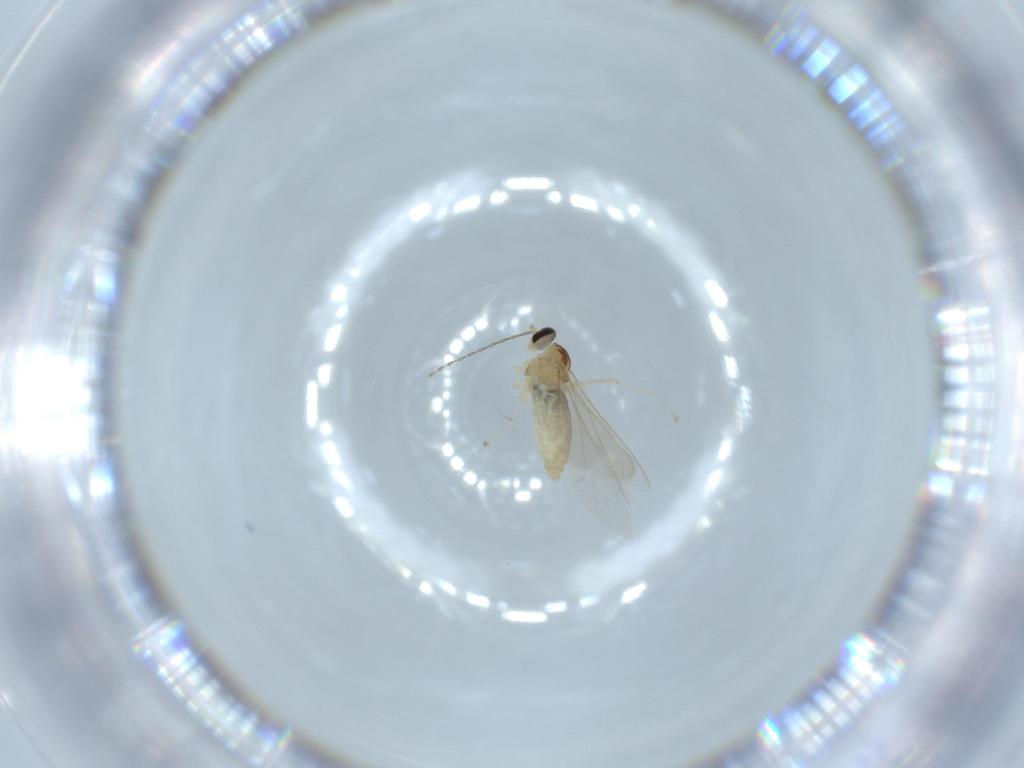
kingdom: Animalia
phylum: Arthropoda
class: Insecta
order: Diptera
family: Cecidomyiidae
